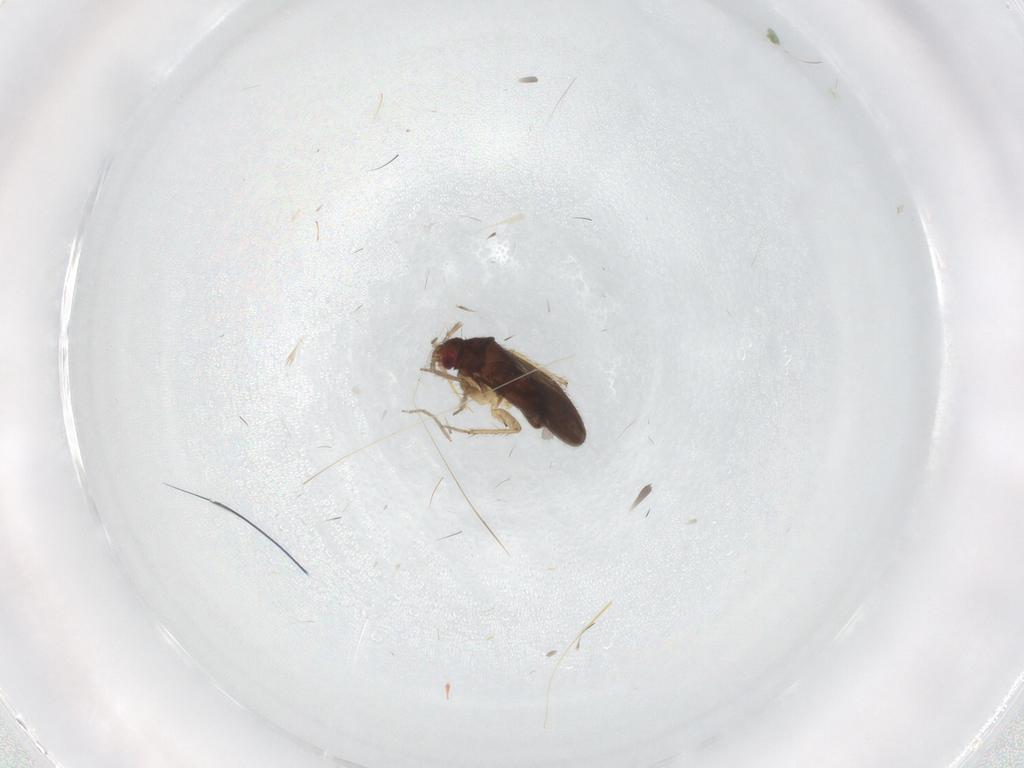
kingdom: Animalia
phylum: Arthropoda
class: Insecta
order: Hemiptera
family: Ceratocombidae
